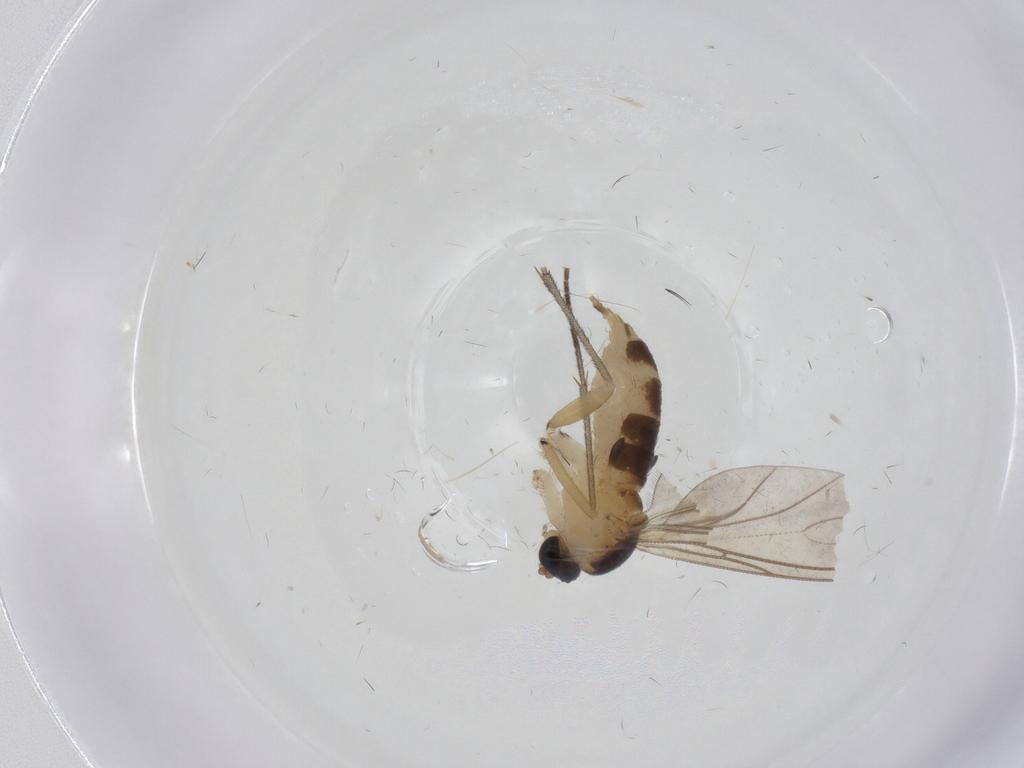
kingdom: Animalia
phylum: Arthropoda
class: Insecta
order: Diptera
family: Sciaridae
